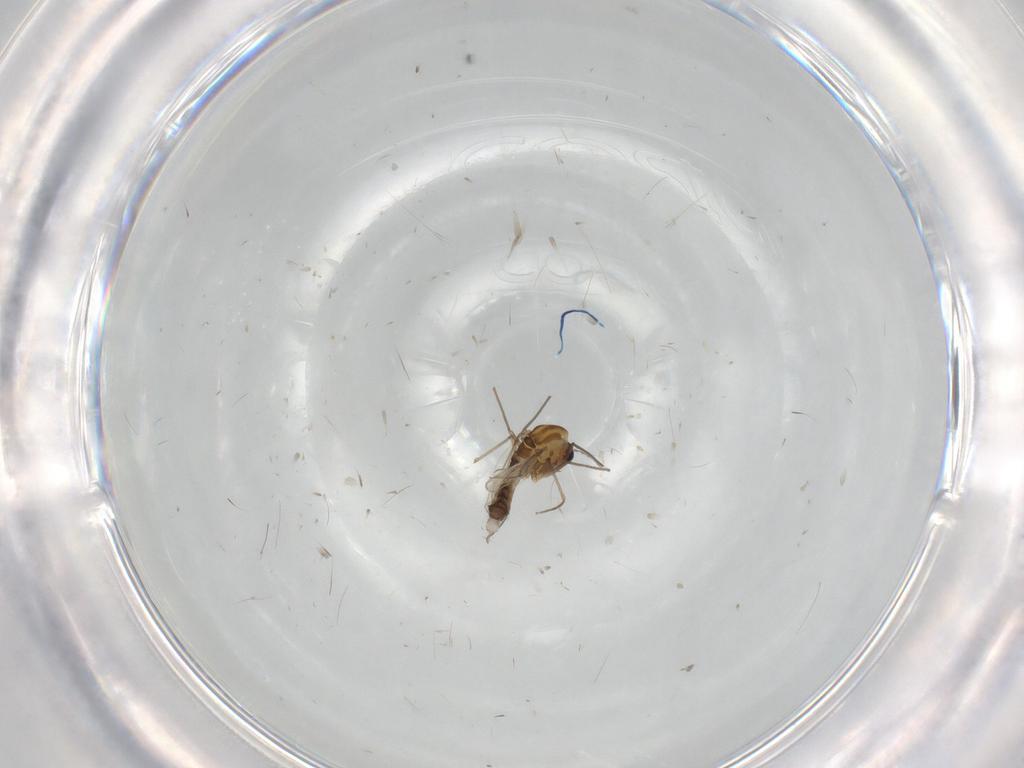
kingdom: Animalia
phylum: Arthropoda
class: Insecta
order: Diptera
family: Chironomidae
